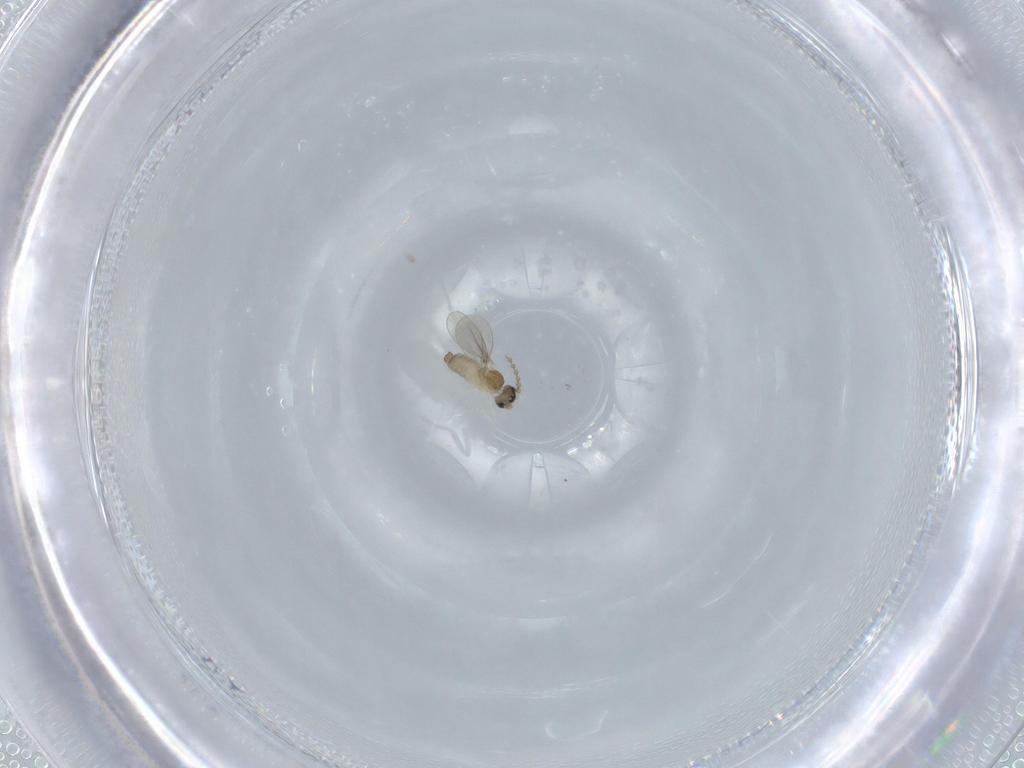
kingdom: Animalia
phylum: Arthropoda
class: Insecta
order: Diptera
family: Cecidomyiidae
